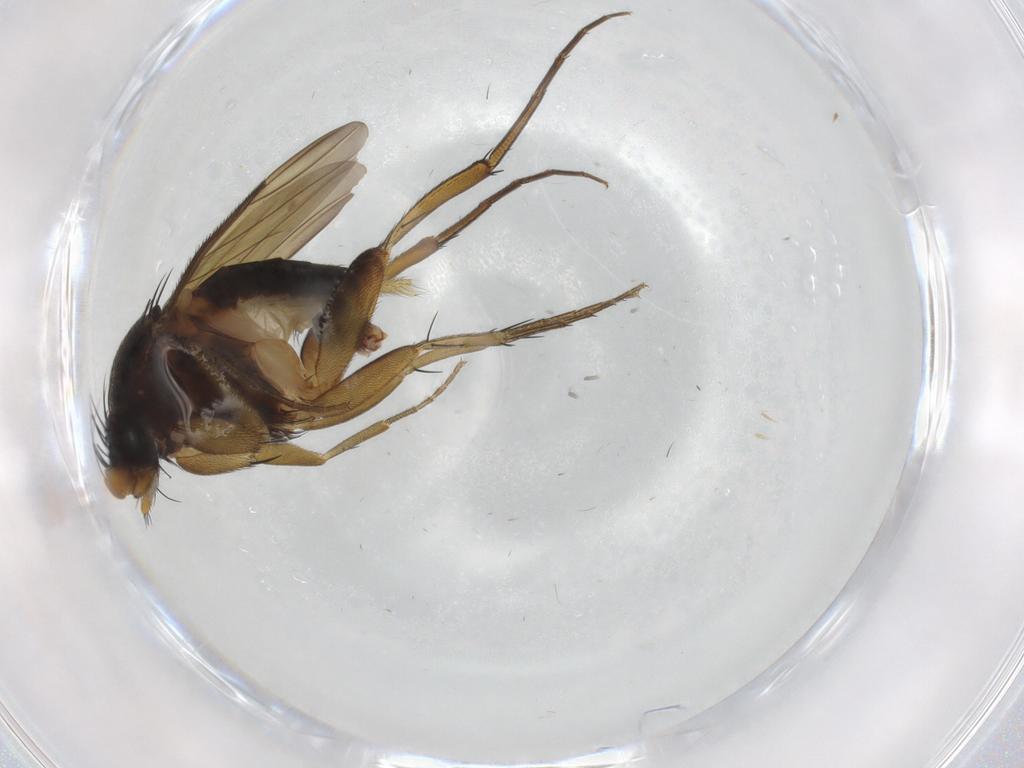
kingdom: Animalia
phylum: Arthropoda
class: Insecta
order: Diptera
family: Phoridae
